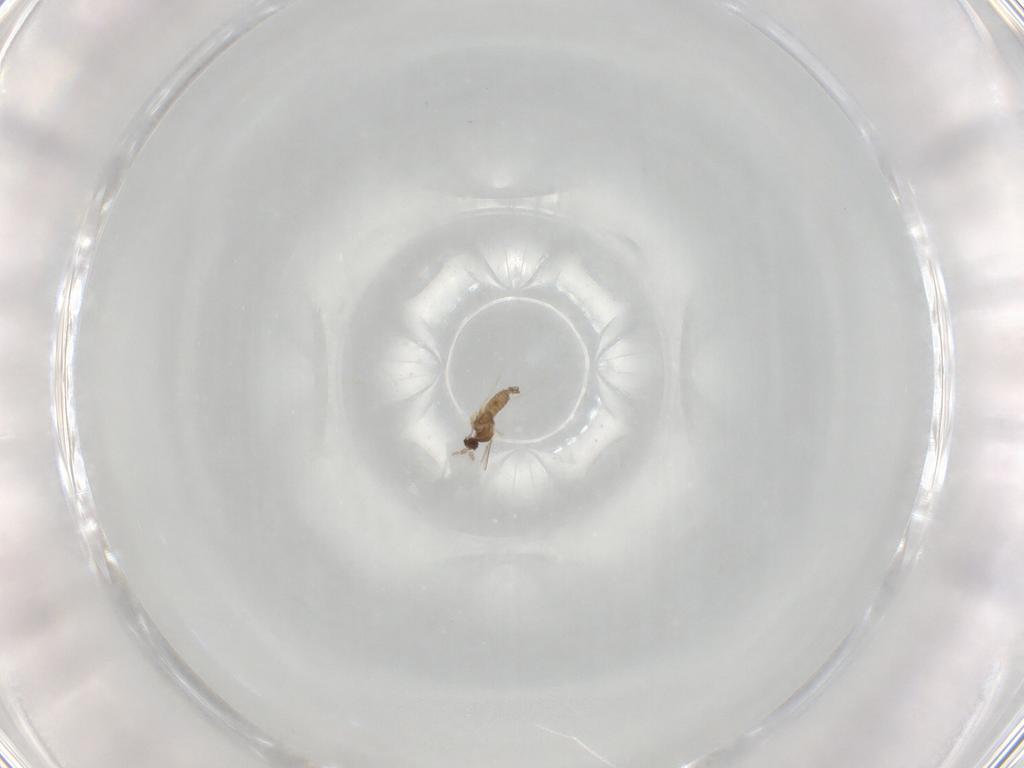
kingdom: Animalia
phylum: Arthropoda
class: Insecta
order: Diptera
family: Cecidomyiidae
